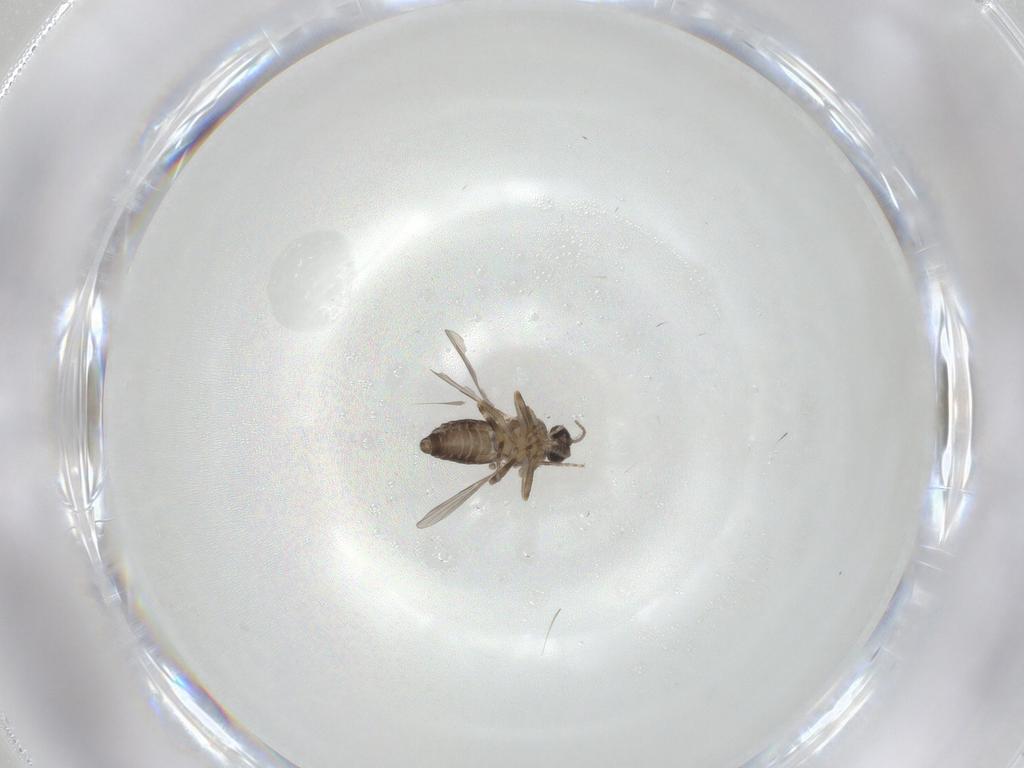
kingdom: Animalia
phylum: Arthropoda
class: Insecta
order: Diptera
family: Ceratopogonidae
